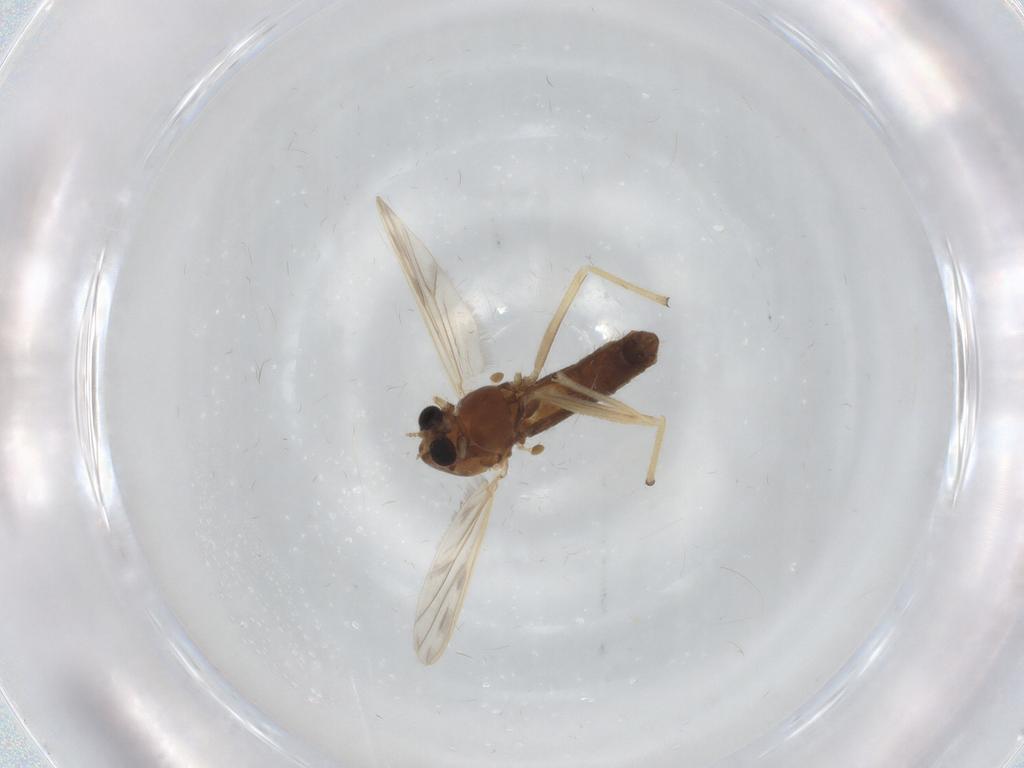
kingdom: Animalia
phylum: Arthropoda
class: Insecta
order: Diptera
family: Chironomidae
